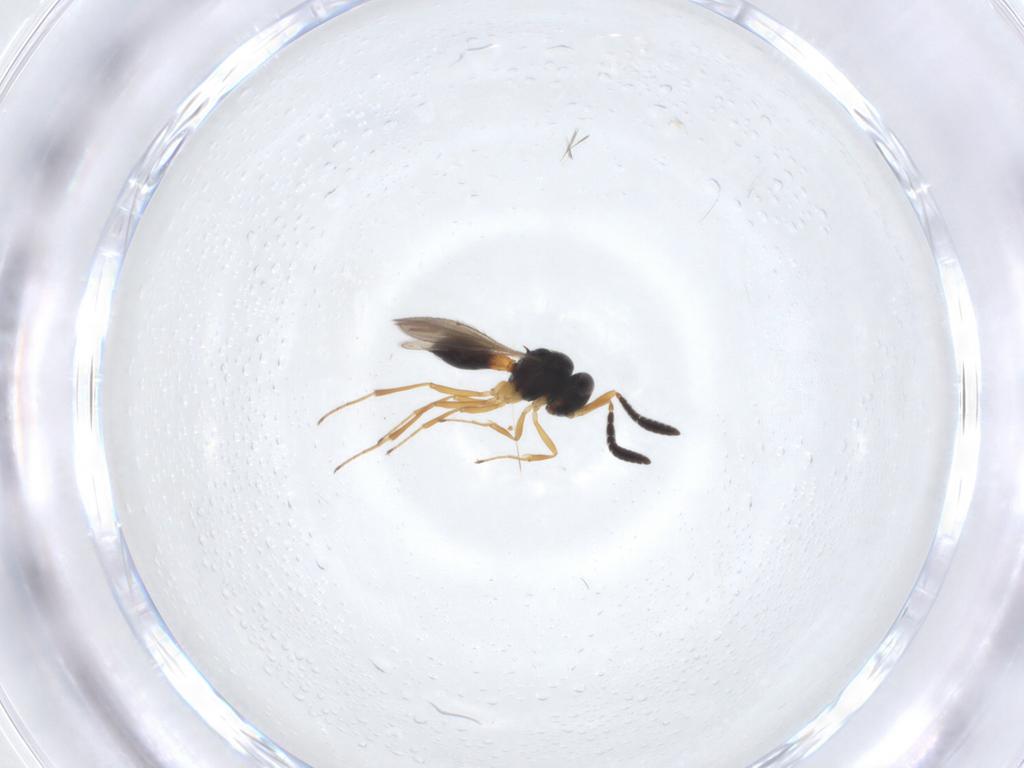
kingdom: Animalia
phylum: Arthropoda
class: Insecta
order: Hymenoptera
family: Scelionidae
